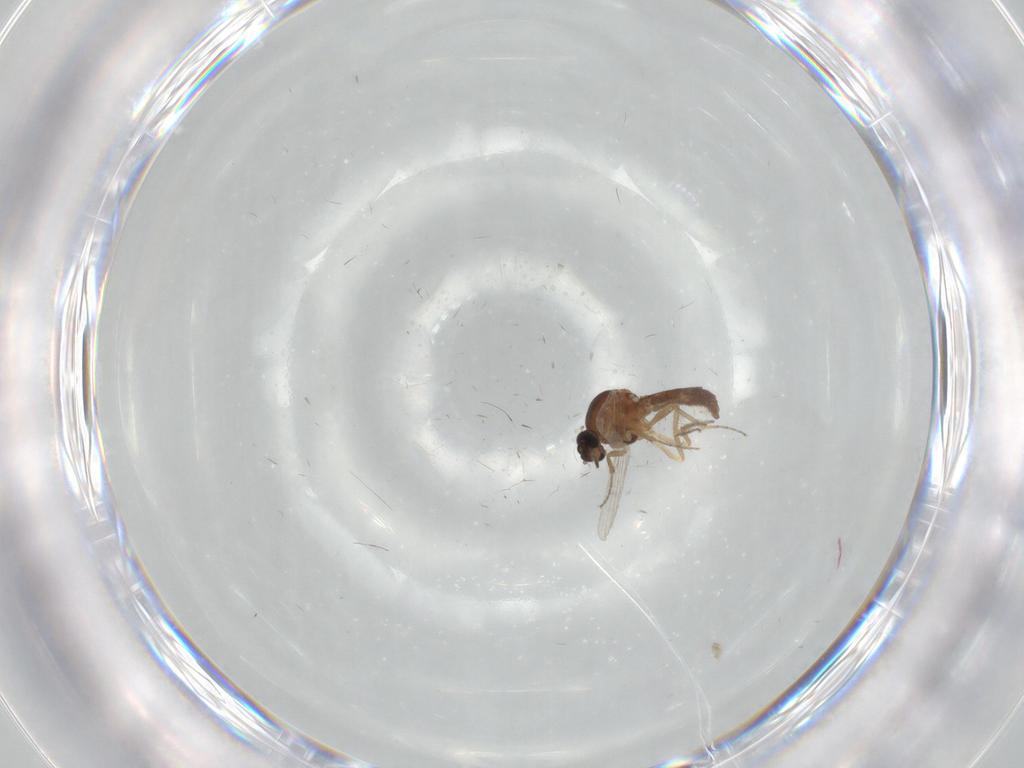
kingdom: Animalia
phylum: Arthropoda
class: Insecta
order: Diptera
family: Ceratopogonidae
